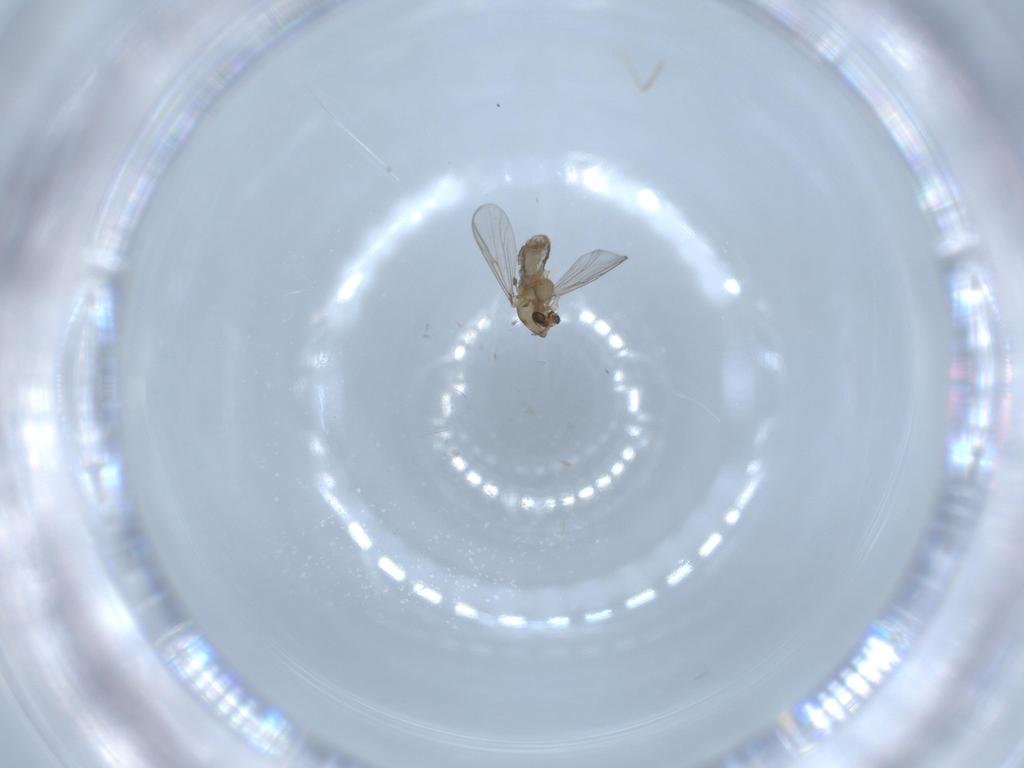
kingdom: Animalia
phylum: Arthropoda
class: Insecta
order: Diptera
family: Chironomidae
